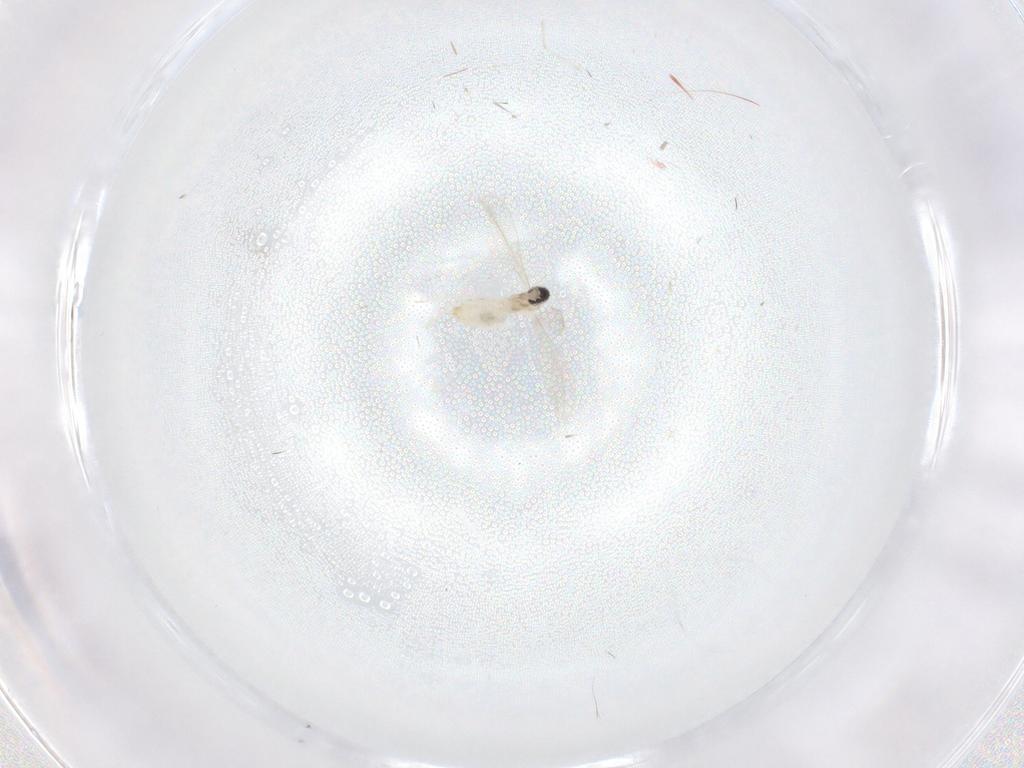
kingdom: Animalia
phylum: Arthropoda
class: Insecta
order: Diptera
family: Cecidomyiidae
